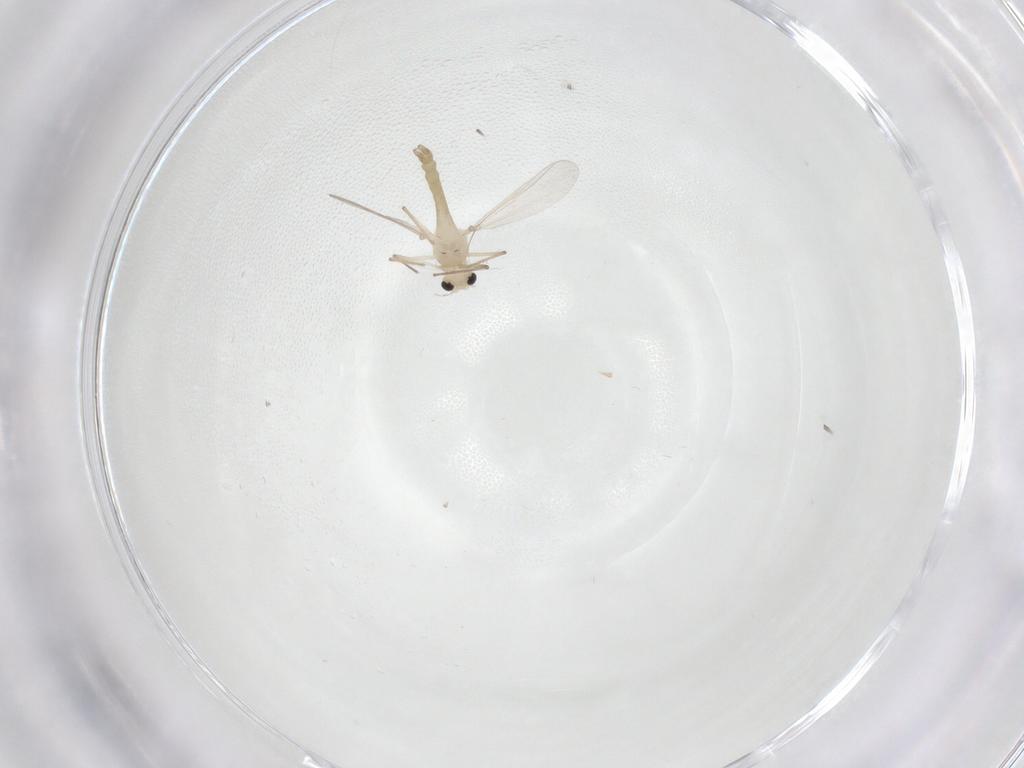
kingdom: Animalia
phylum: Arthropoda
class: Insecta
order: Diptera
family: Chironomidae
